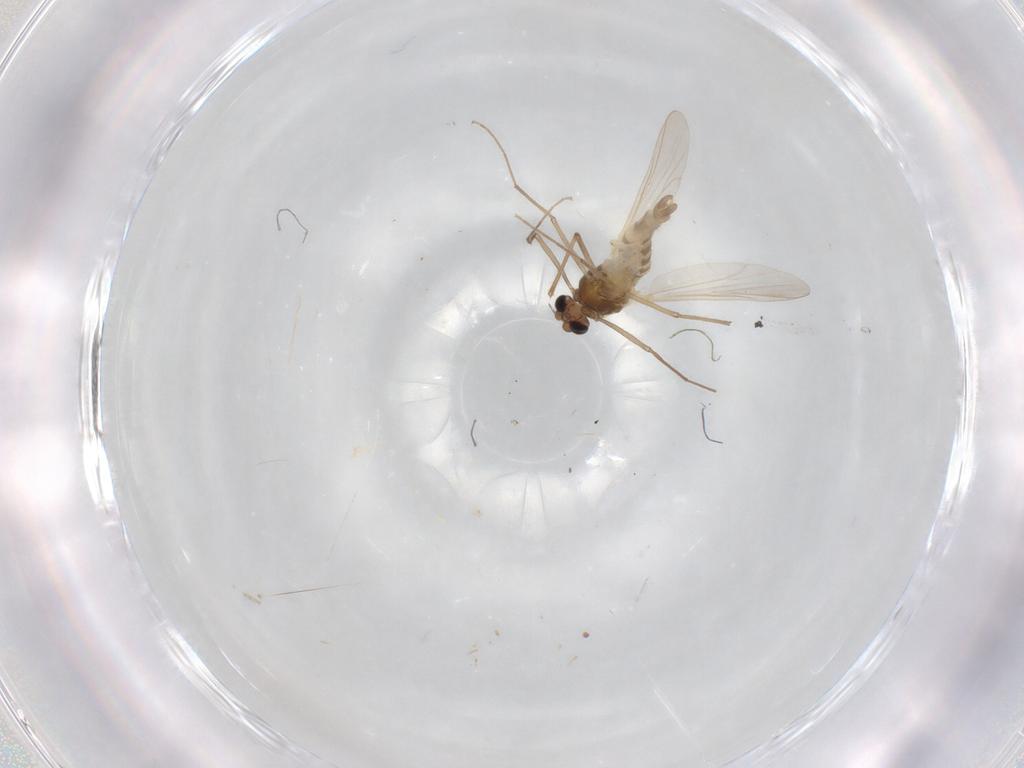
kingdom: Animalia
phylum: Arthropoda
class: Insecta
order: Diptera
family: Chironomidae
